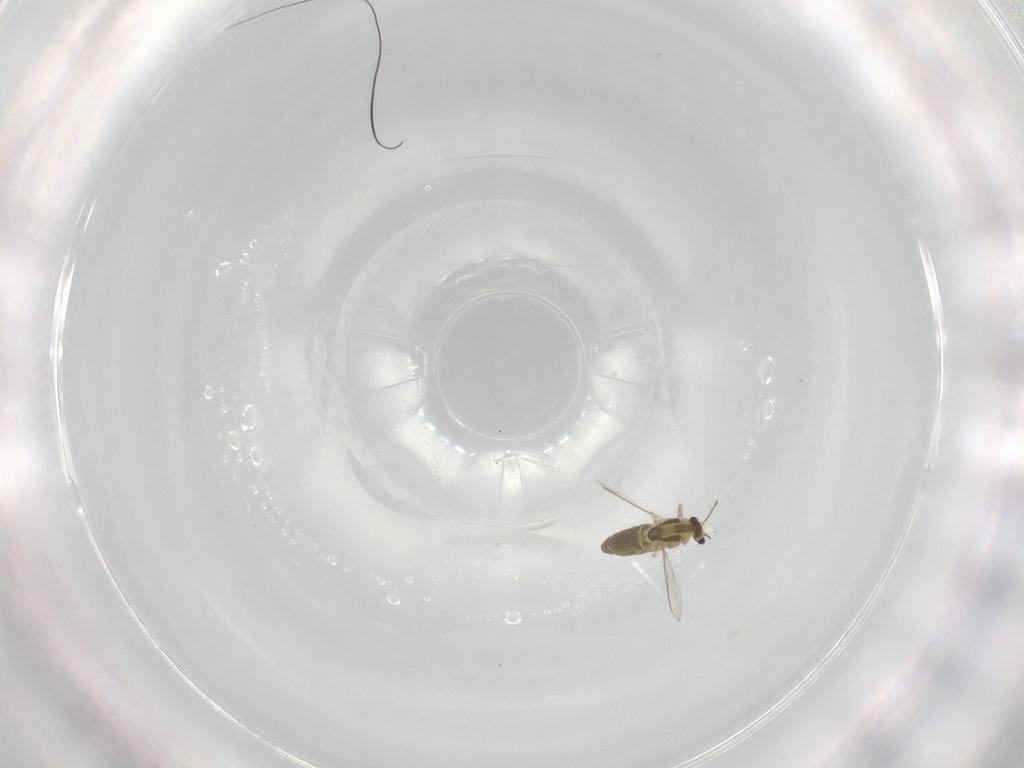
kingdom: Animalia
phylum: Arthropoda
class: Insecta
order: Diptera
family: Chironomidae
